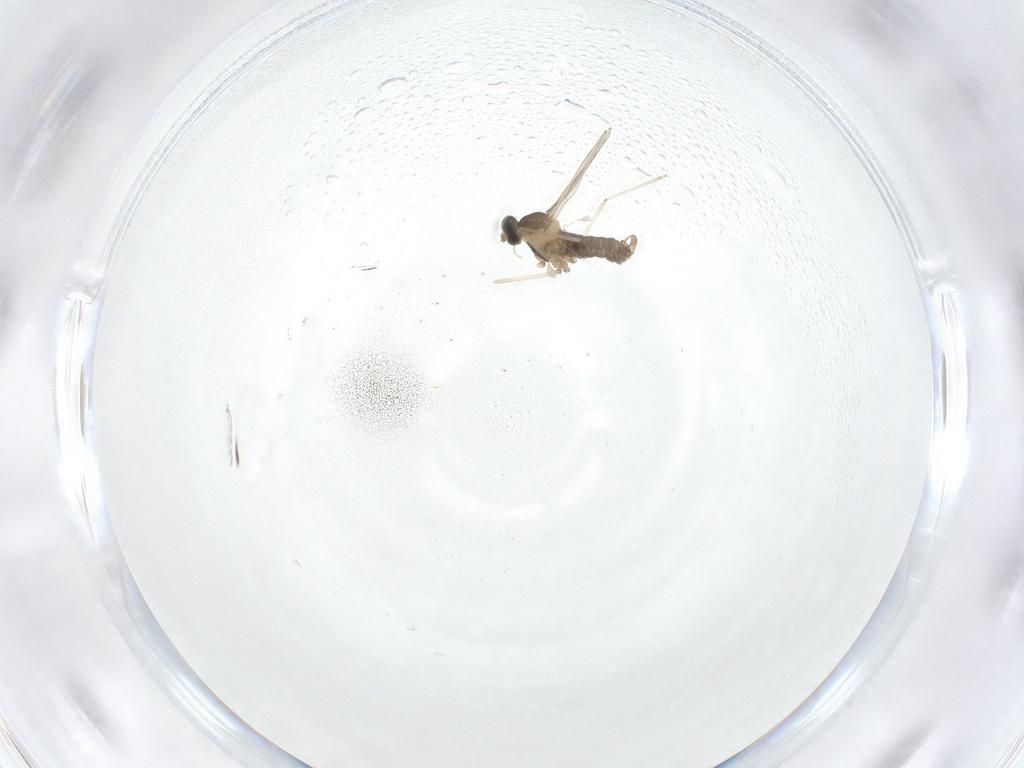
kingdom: Animalia
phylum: Arthropoda
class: Insecta
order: Diptera
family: Cecidomyiidae
